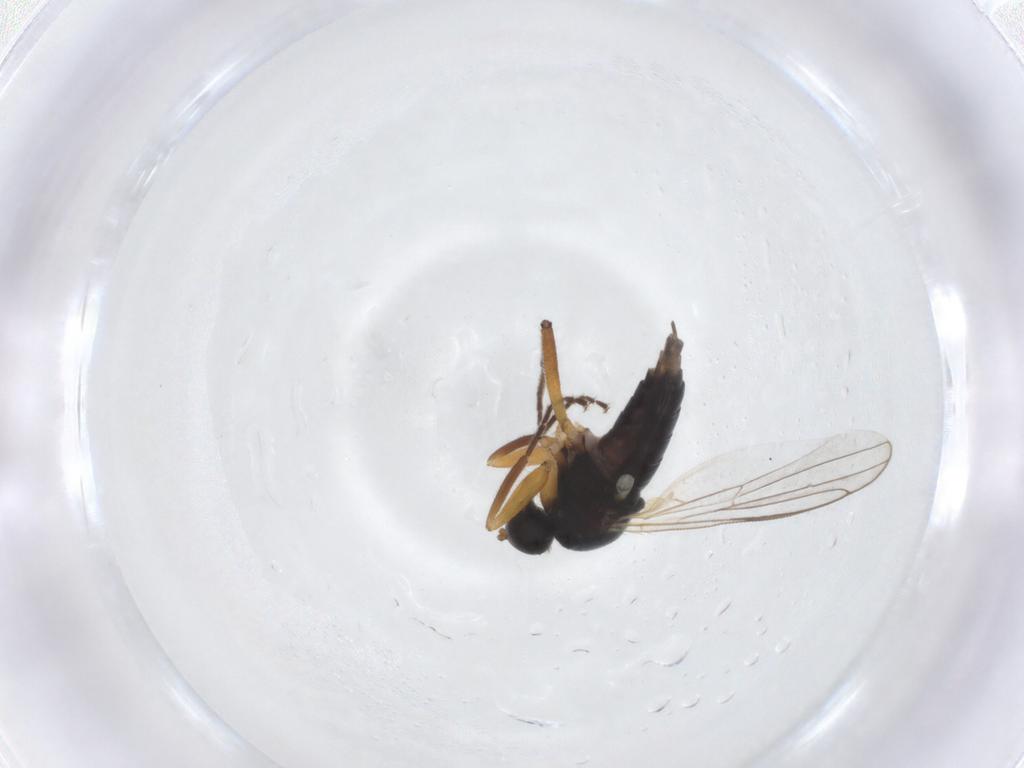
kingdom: Animalia
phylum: Arthropoda
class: Insecta
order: Diptera
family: Hybotidae
